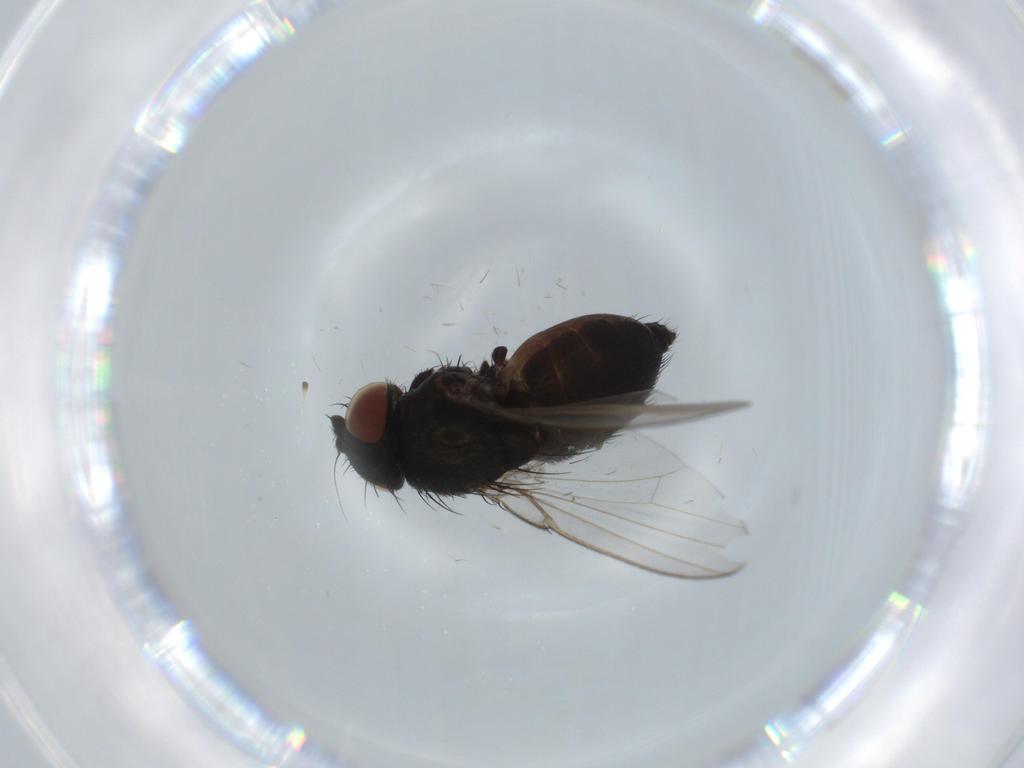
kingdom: Animalia
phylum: Arthropoda
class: Insecta
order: Diptera
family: Milichiidae
